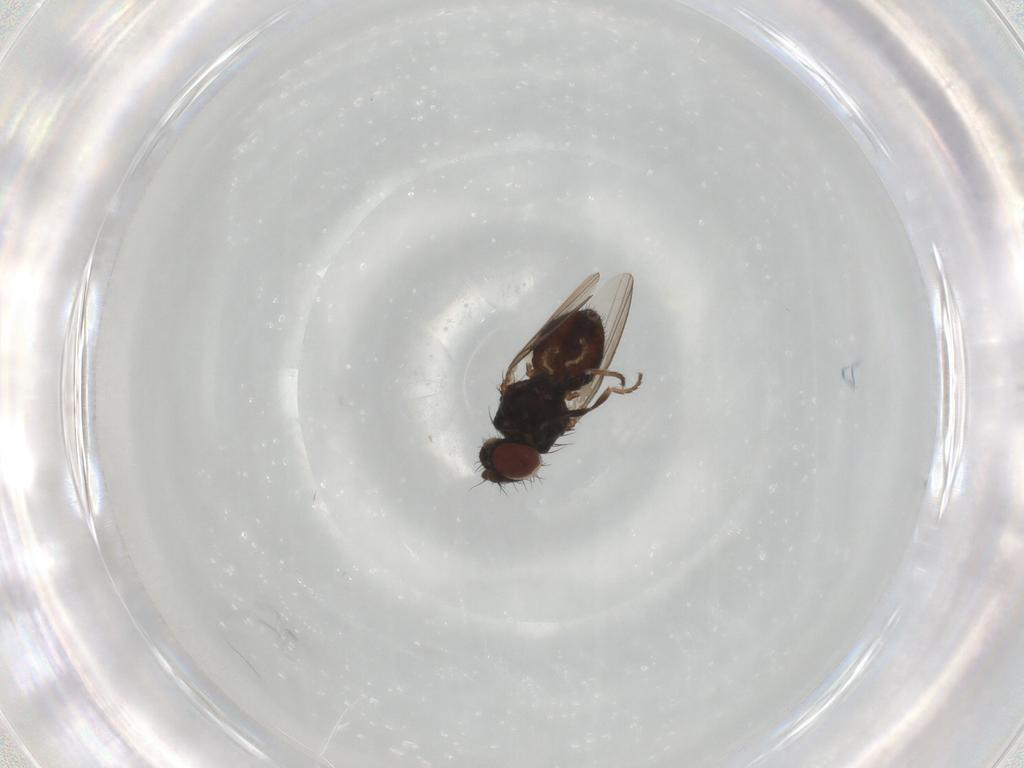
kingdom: Animalia
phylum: Arthropoda
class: Insecta
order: Diptera
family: Milichiidae
